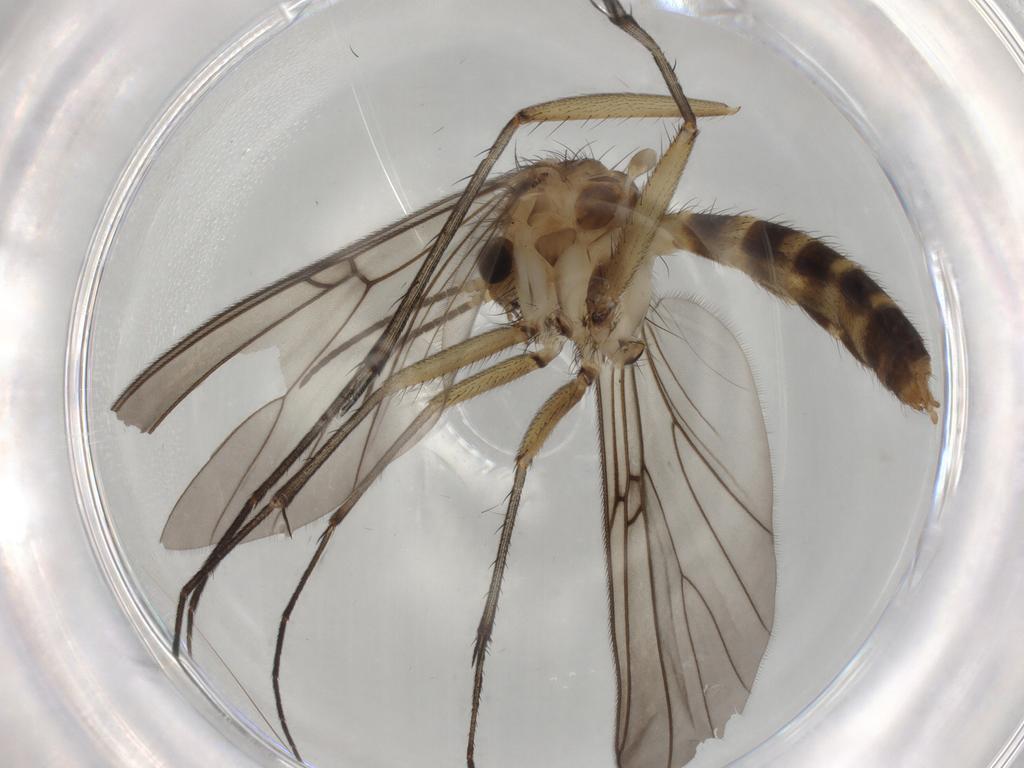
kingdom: Animalia
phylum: Arthropoda
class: Insecta
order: Diptera
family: Mycetophilidae
